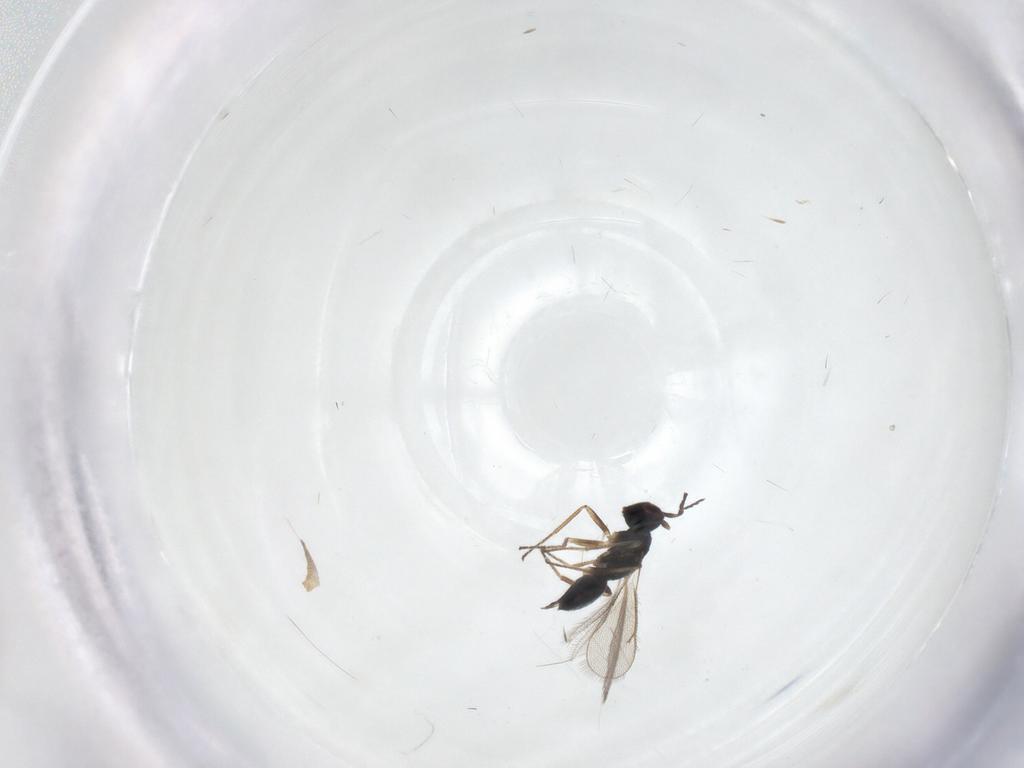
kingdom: Animalia
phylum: Arthropoda
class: Insecta
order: Hymenoptera
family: Eulophidae
